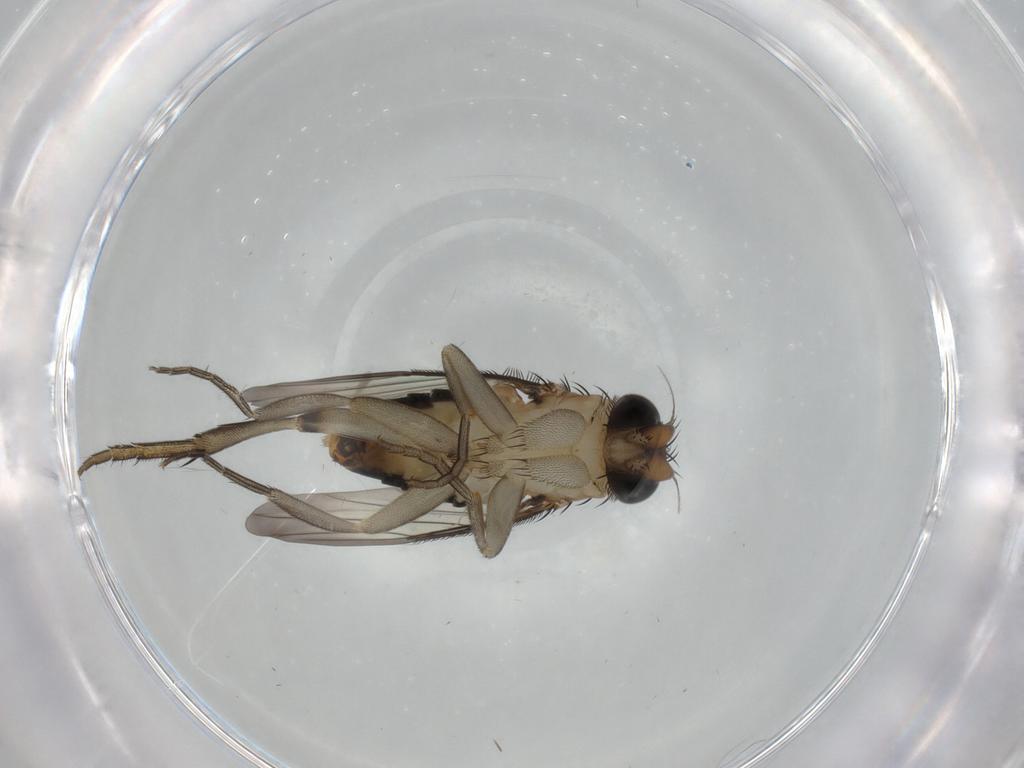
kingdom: Animalia
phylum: Arthropoda
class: Insecta
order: Diptera
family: Phoridae
